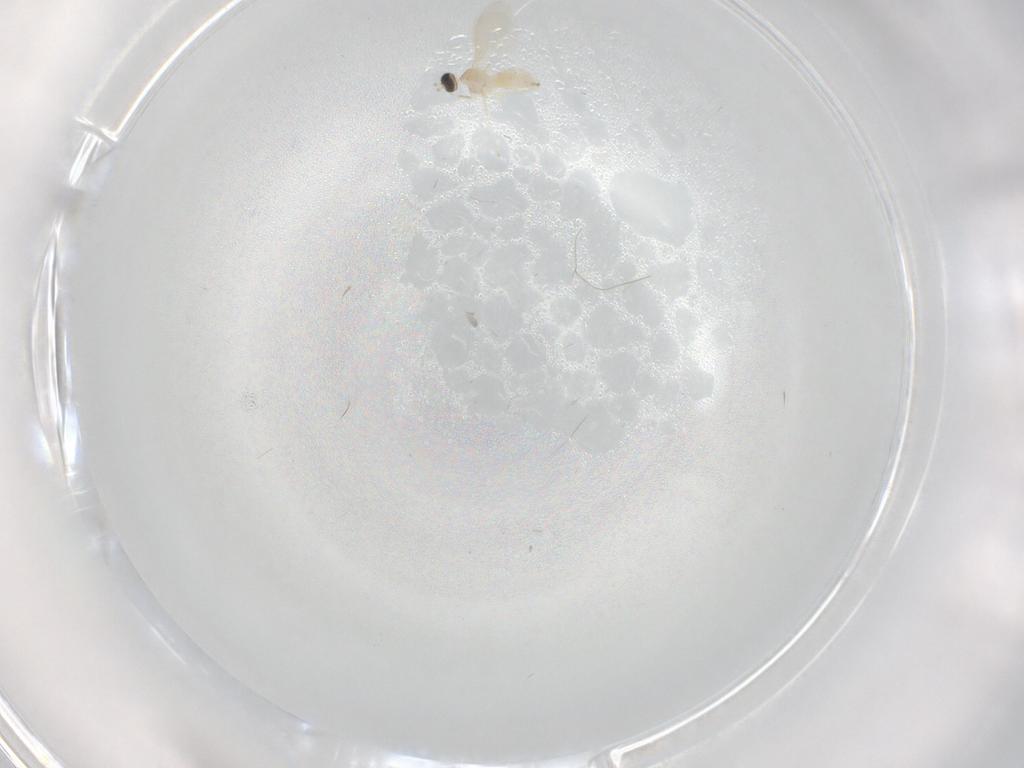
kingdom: Animalia
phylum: Arthropoda
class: Insecta
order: Diptera
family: Cecidomyiidae
